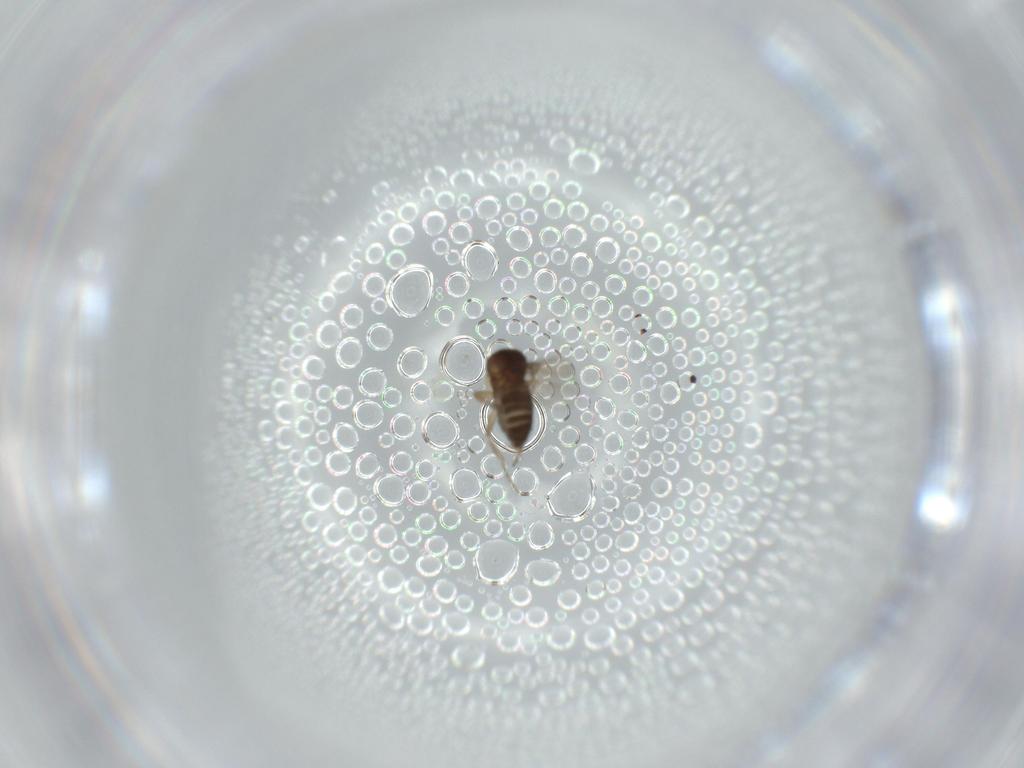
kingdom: Animalia
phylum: Arthropoda
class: Insecta
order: Diptera
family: Phoridae
